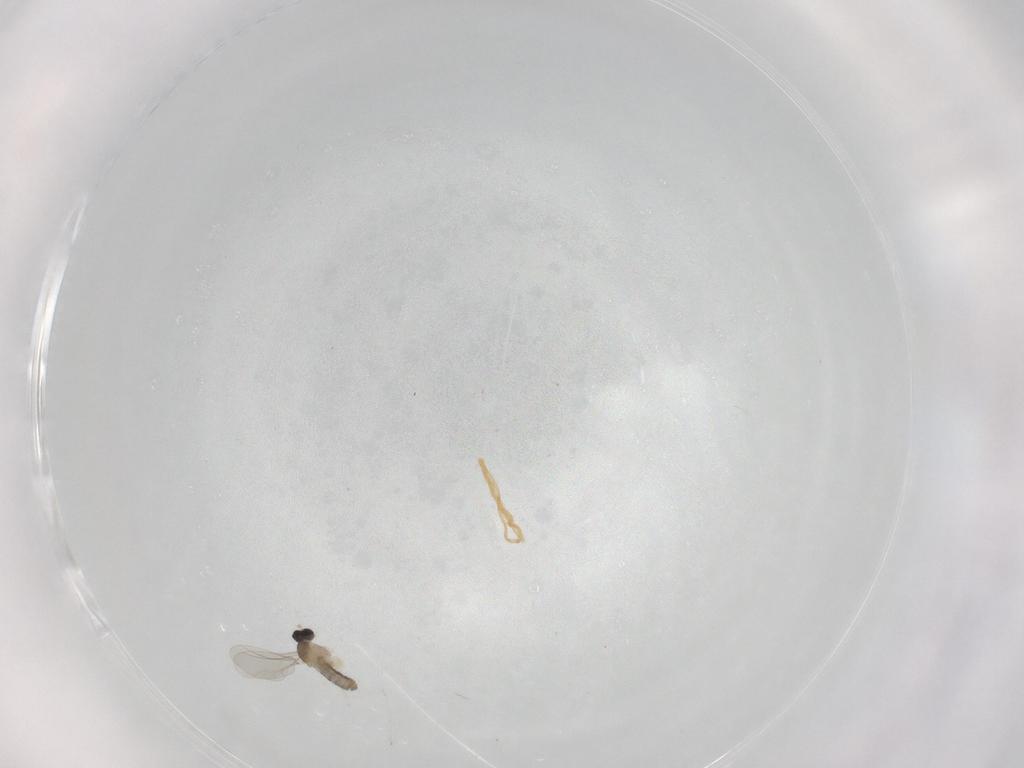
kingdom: Animalia
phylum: Arthropoda
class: Insecta
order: Diptera
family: Cecidomyiidae
